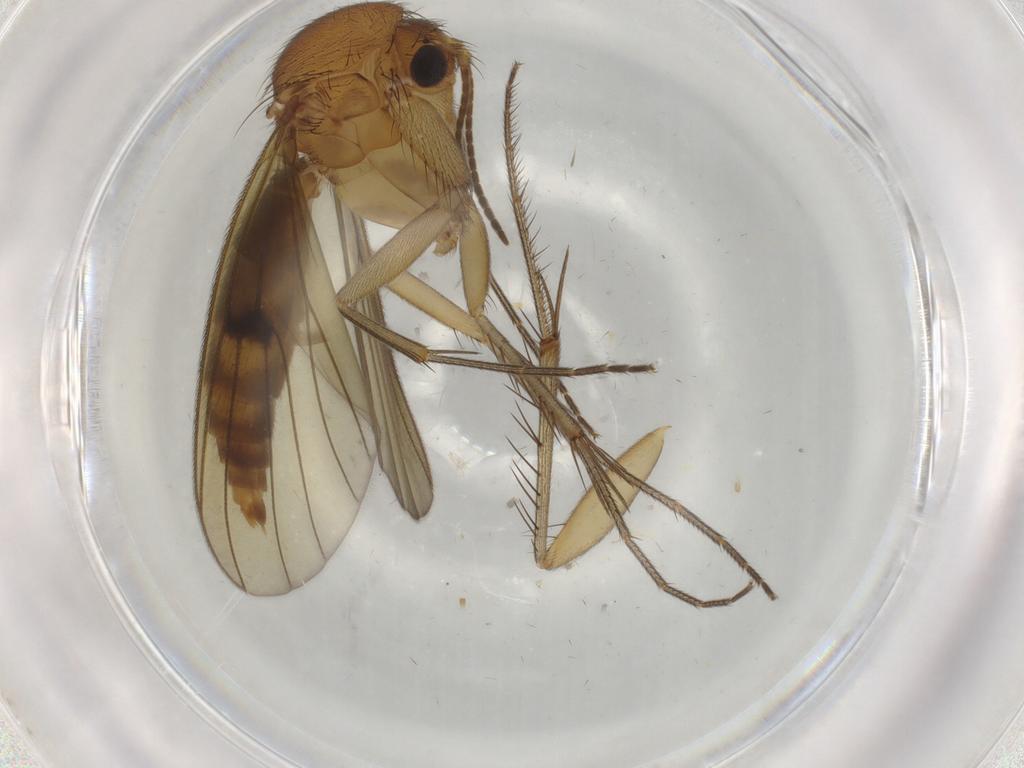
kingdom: Animalia
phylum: Arthropoda
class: Insecta
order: Diptera
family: Mycetophilidae
